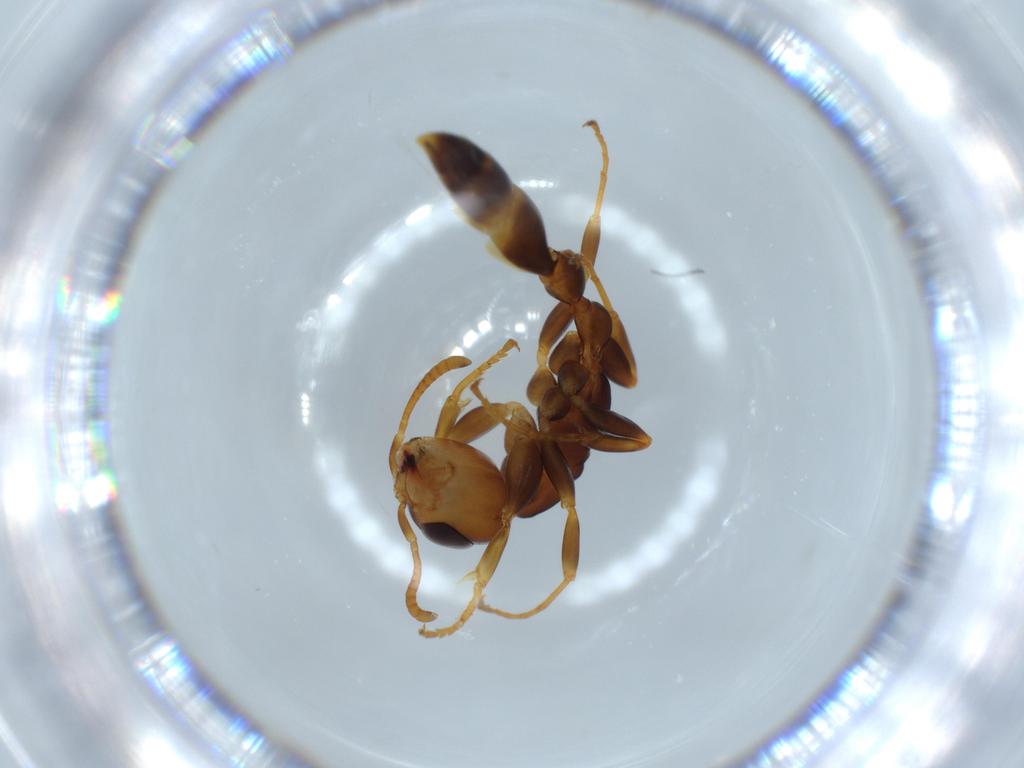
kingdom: Animalia
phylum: Arthropoda
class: Insecta
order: Hymenoptera
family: Formicidae
